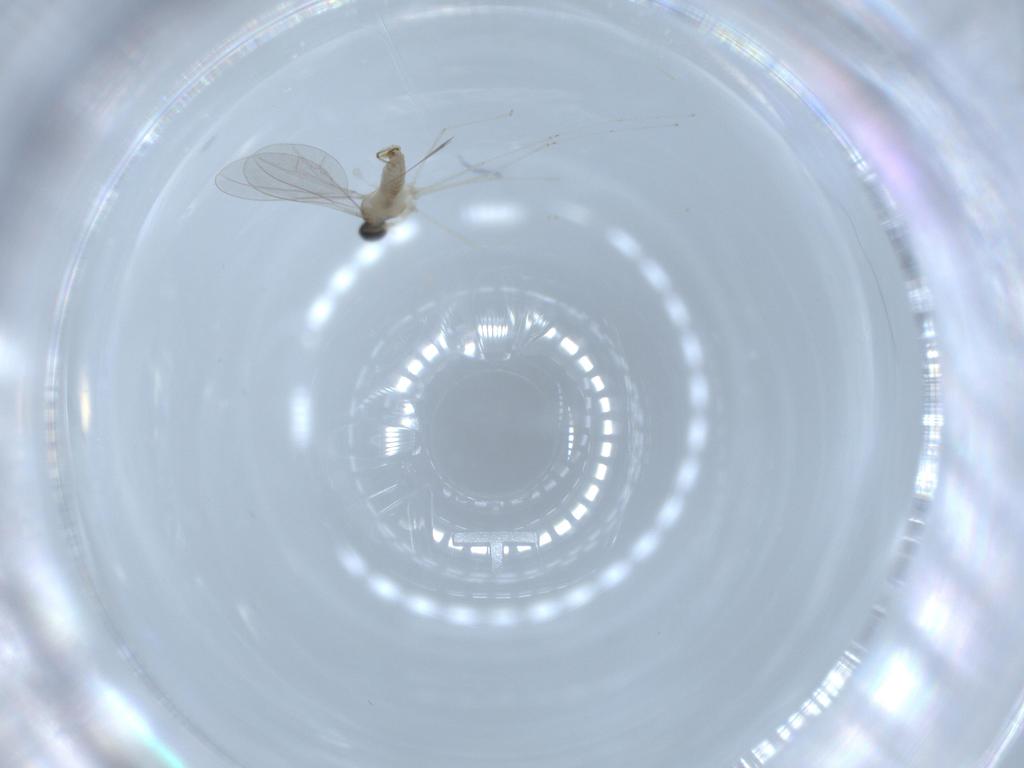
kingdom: Animalia
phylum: Arthropoda
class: Insecta
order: Diptera
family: Cecidomyiidae
